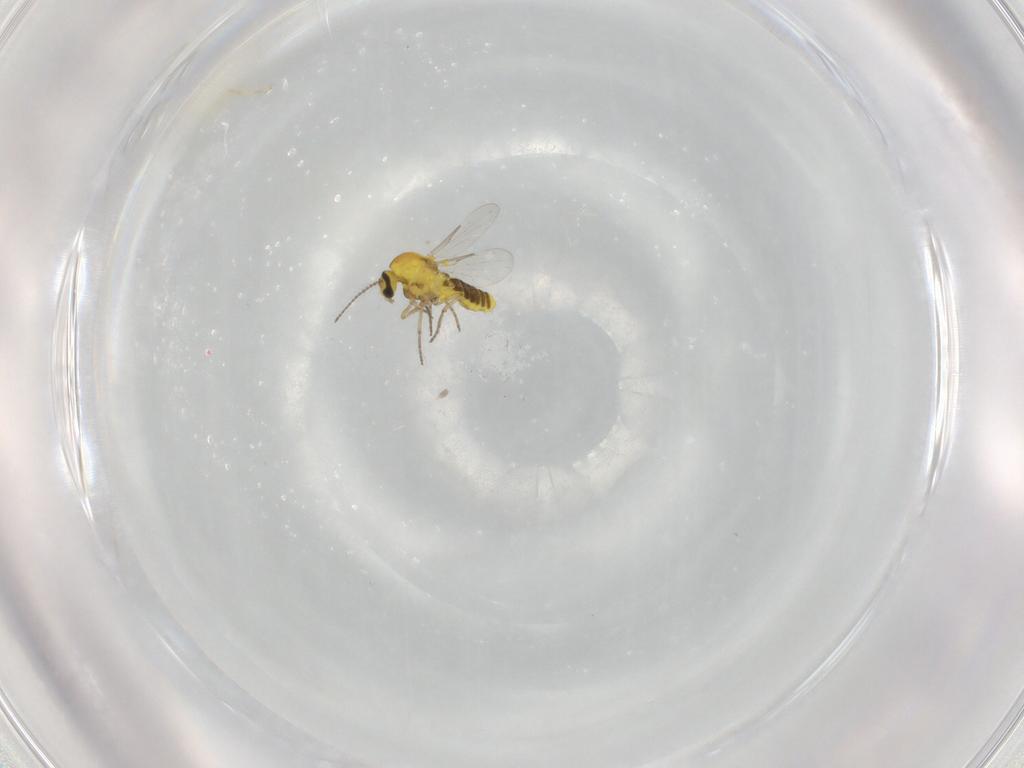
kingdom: Animalia
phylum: Arthropoda
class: Insecta
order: Diptera
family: Ceratopogonidae
